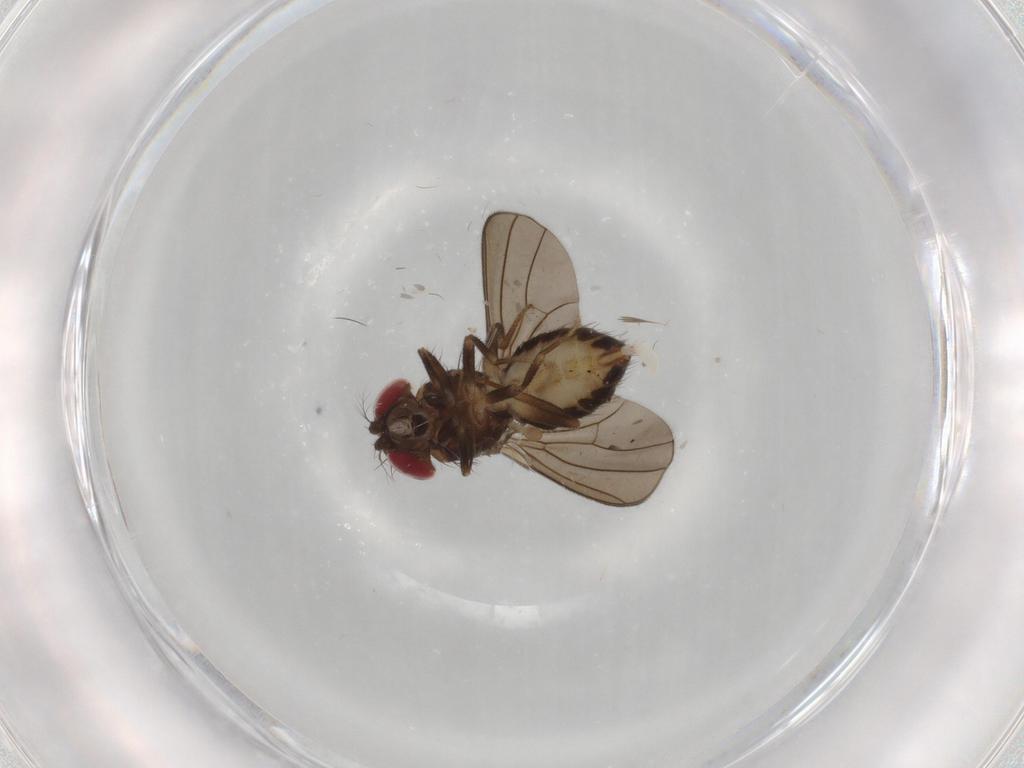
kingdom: Animalia
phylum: Arthropoda
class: Insecta
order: Diptera
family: Drosophilidae
